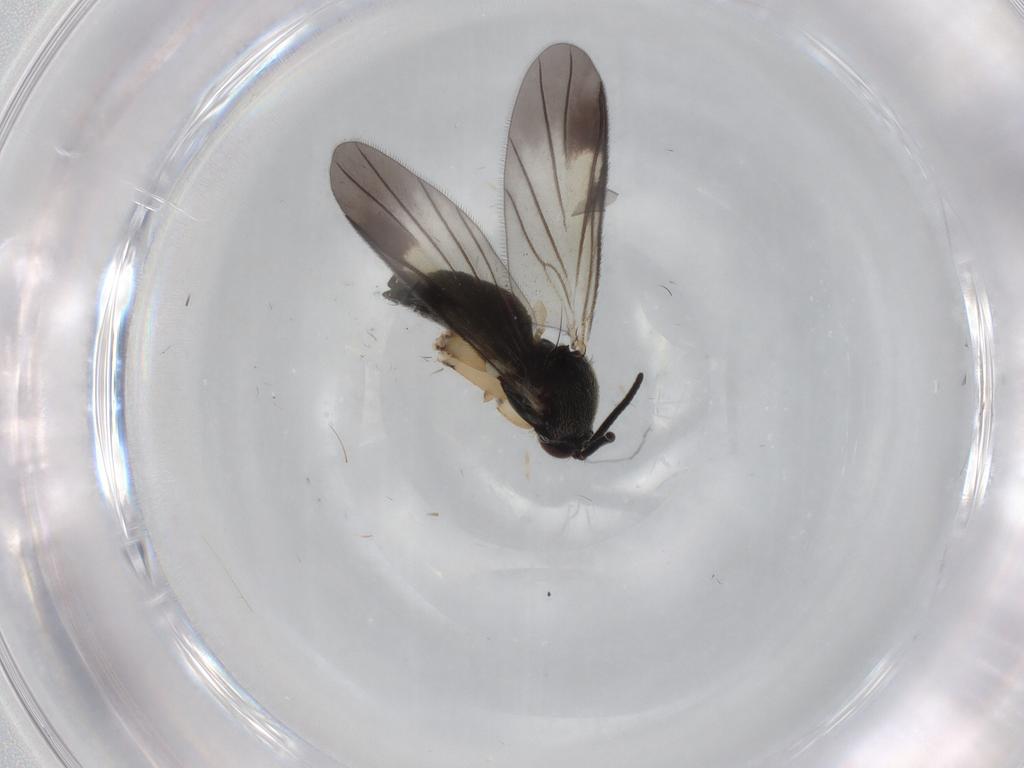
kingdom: Animalia
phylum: Arthropoda
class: Insecta
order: Diptera
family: Mycetophilidae
